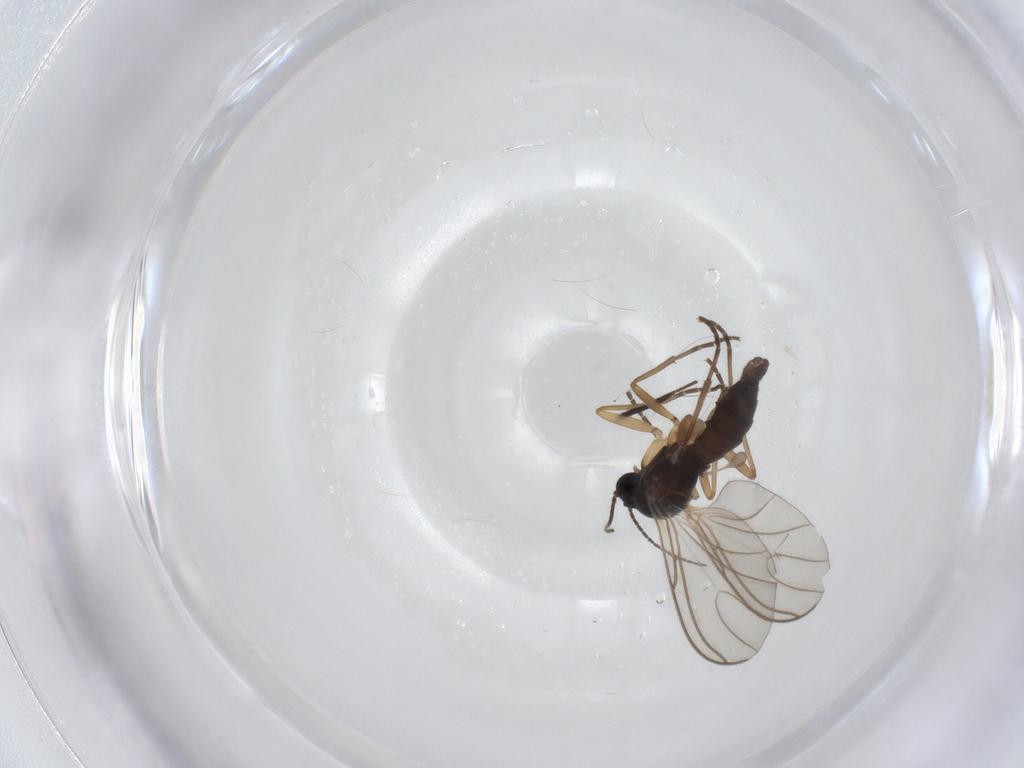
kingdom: Animalia
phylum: Arthropoda
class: Insecta
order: Diptera
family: Sciaridae
